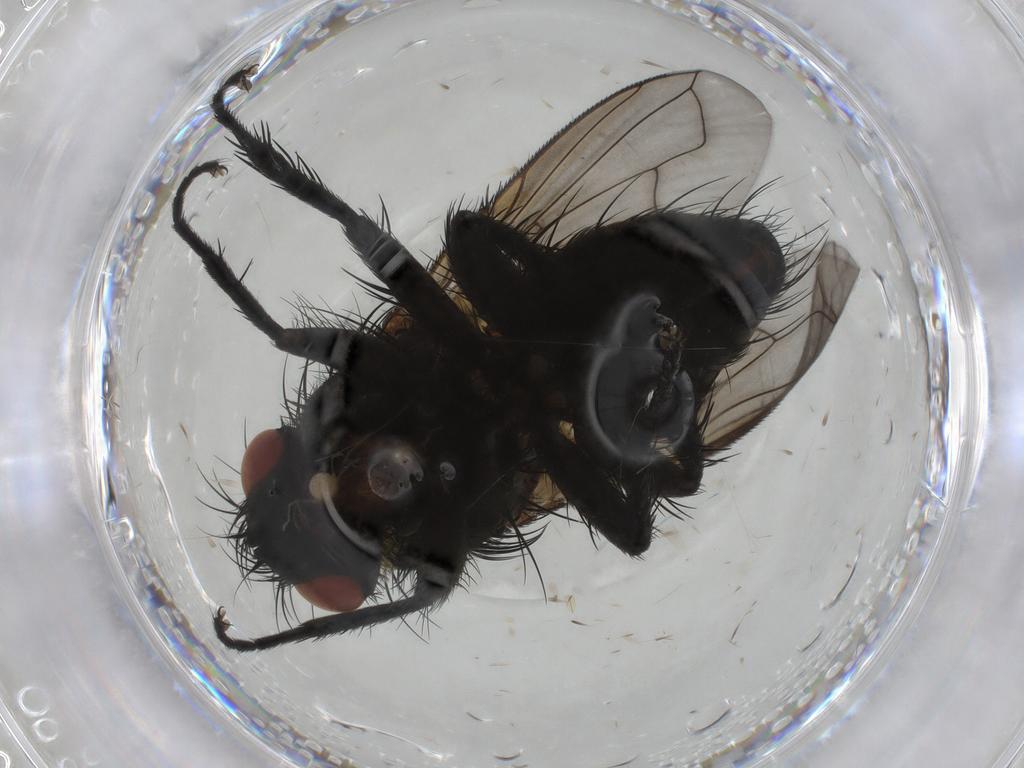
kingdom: Animalia
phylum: Arthropoda
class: Insecta
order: Diptera
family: Tachinidae
